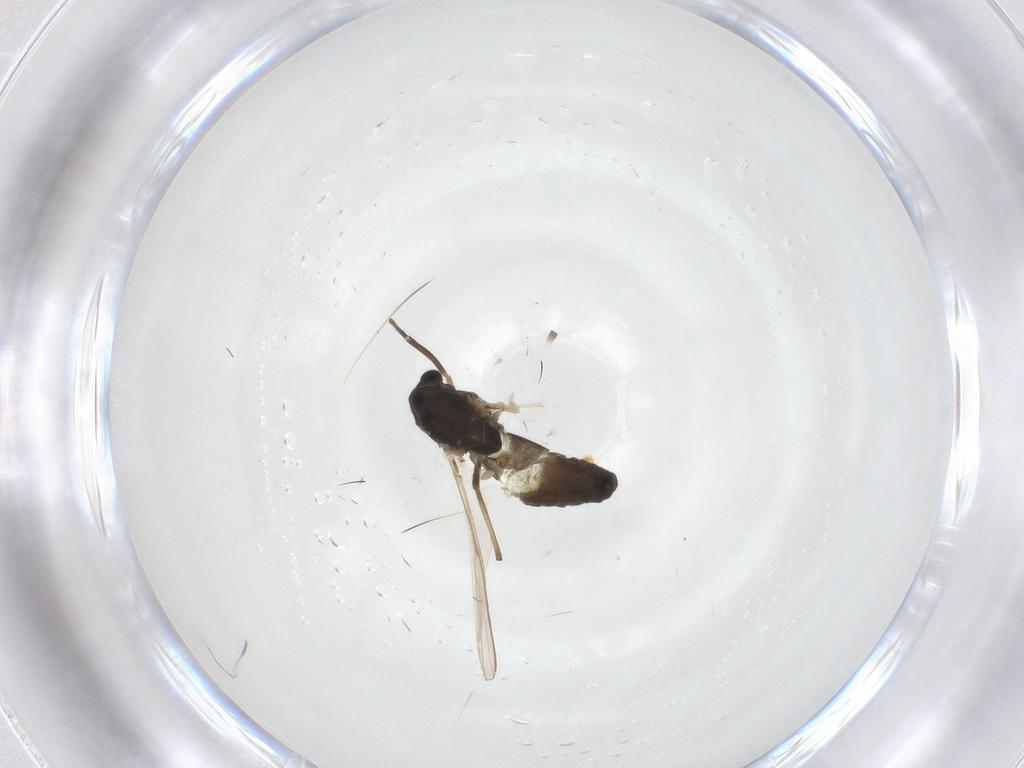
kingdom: Animalia
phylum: Arthropoda
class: Insecta
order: Diptera
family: Chironomidae
